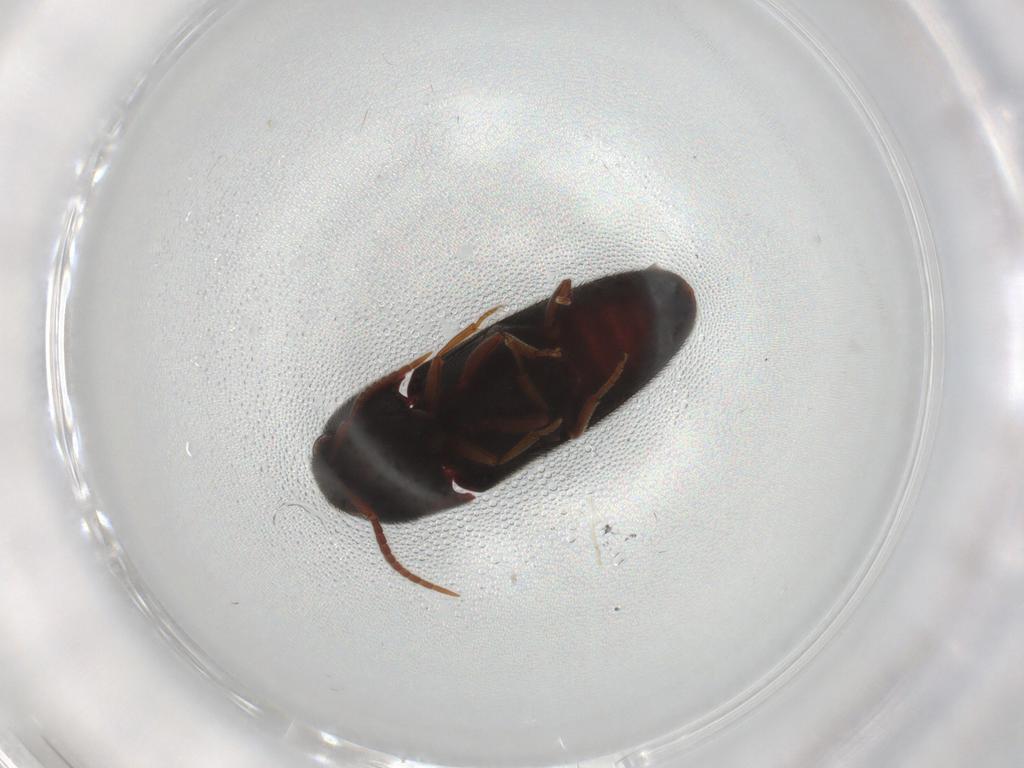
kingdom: Animalia
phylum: Arthropoda
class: Insecta
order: Coleoptera
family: Eucnemidae
